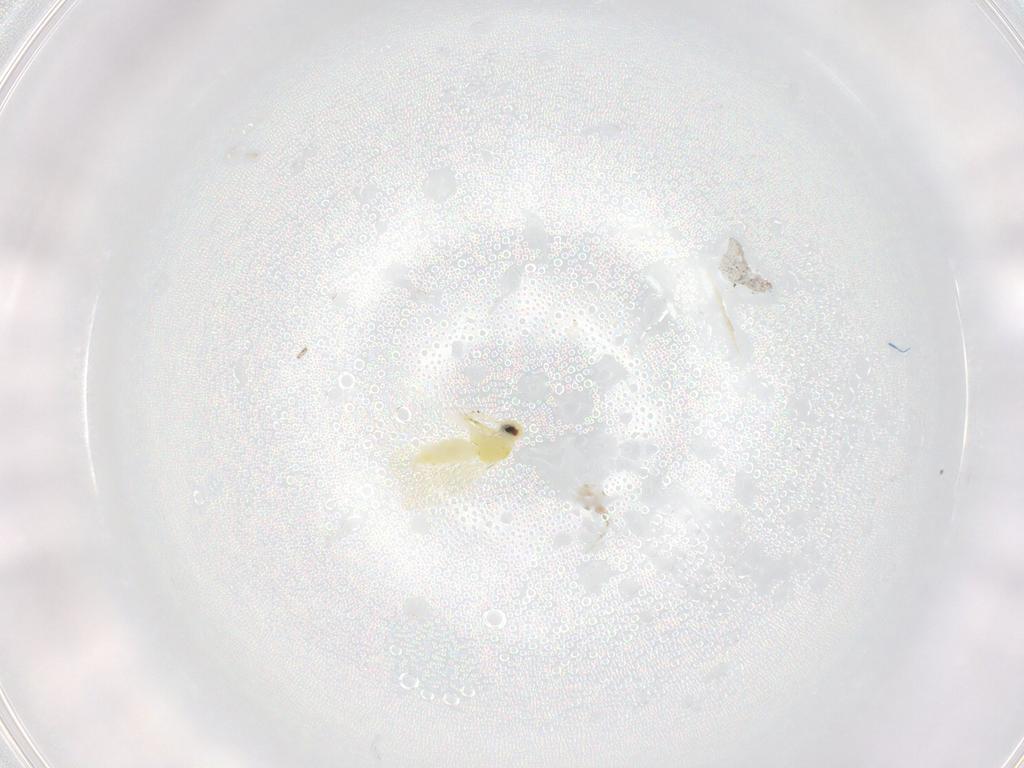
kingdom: Animalia
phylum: Arthropoda
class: Insecta
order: Hemiptera
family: Aleyrodidae
